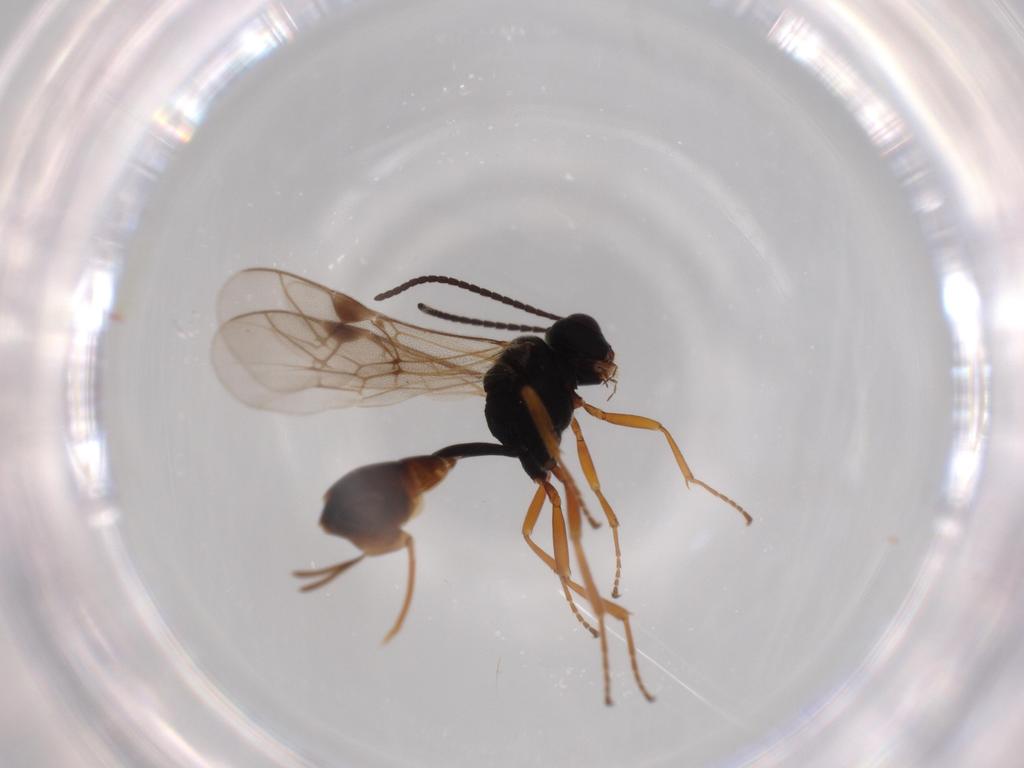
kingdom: Animalia
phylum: Arthropoda
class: Insecta
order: Hymenoptera
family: Ichneumonidae
